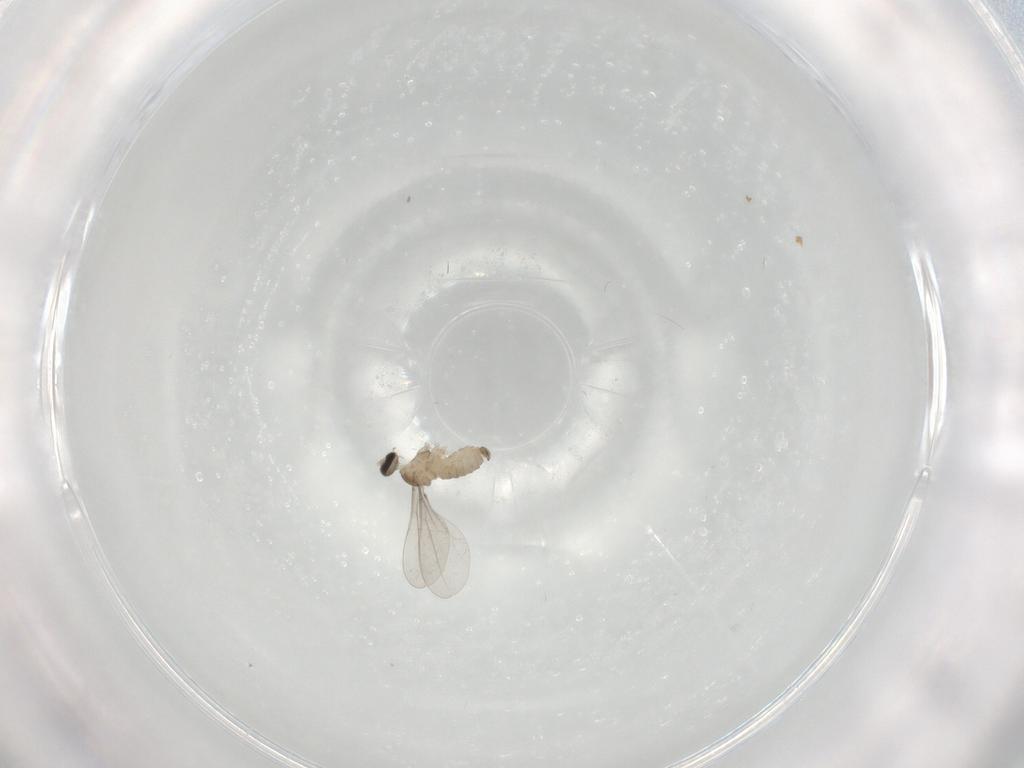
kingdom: Animalia
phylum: Arthropoda
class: Insecta
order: Diptera
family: Cecidomyiidae
